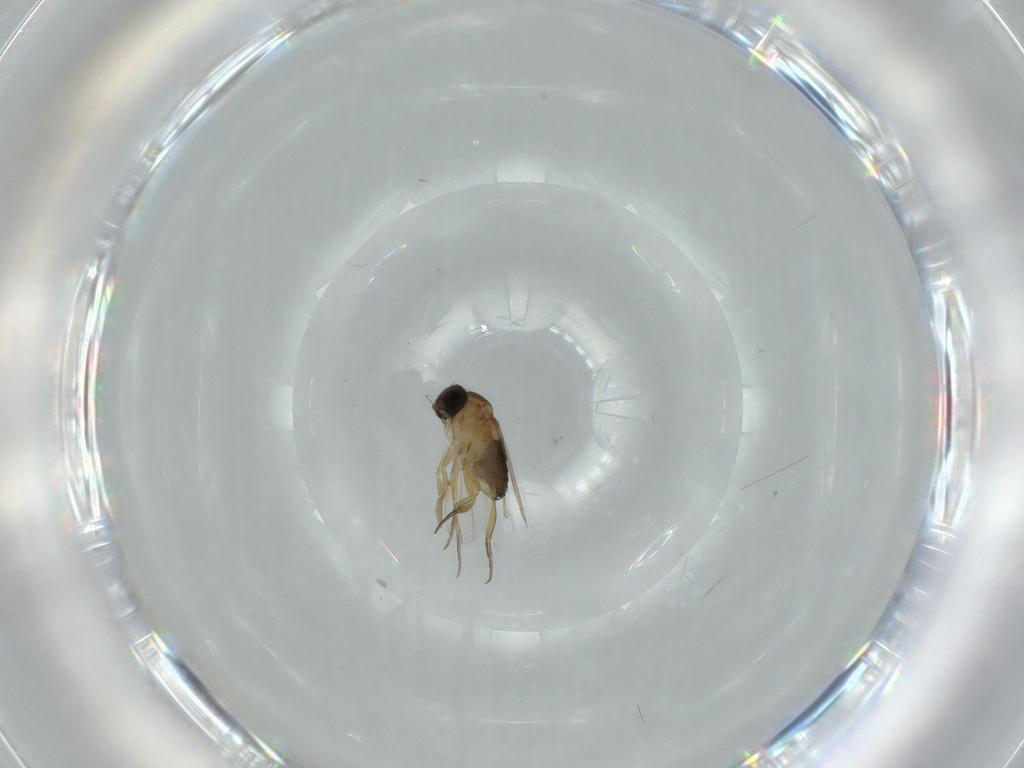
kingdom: Animalia
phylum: Arthropoda
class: Insecta
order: Diptera
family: Phoridae
